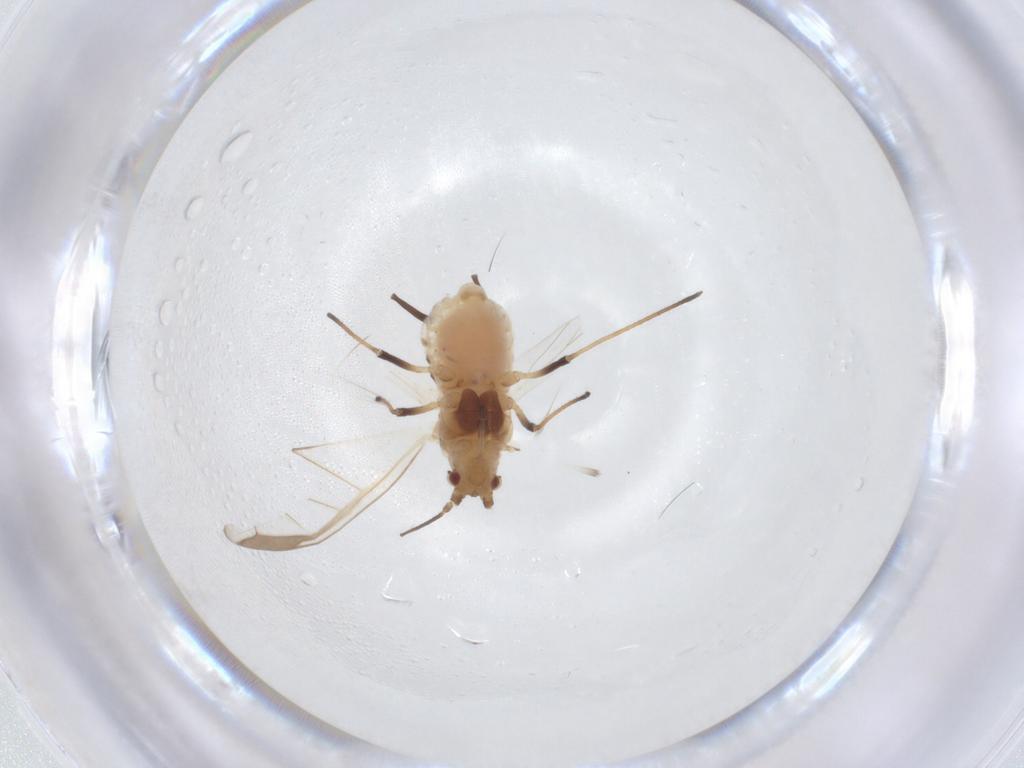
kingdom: Animalia
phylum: Arthropoda
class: Insecta
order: Hemiptera
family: Aphididae
